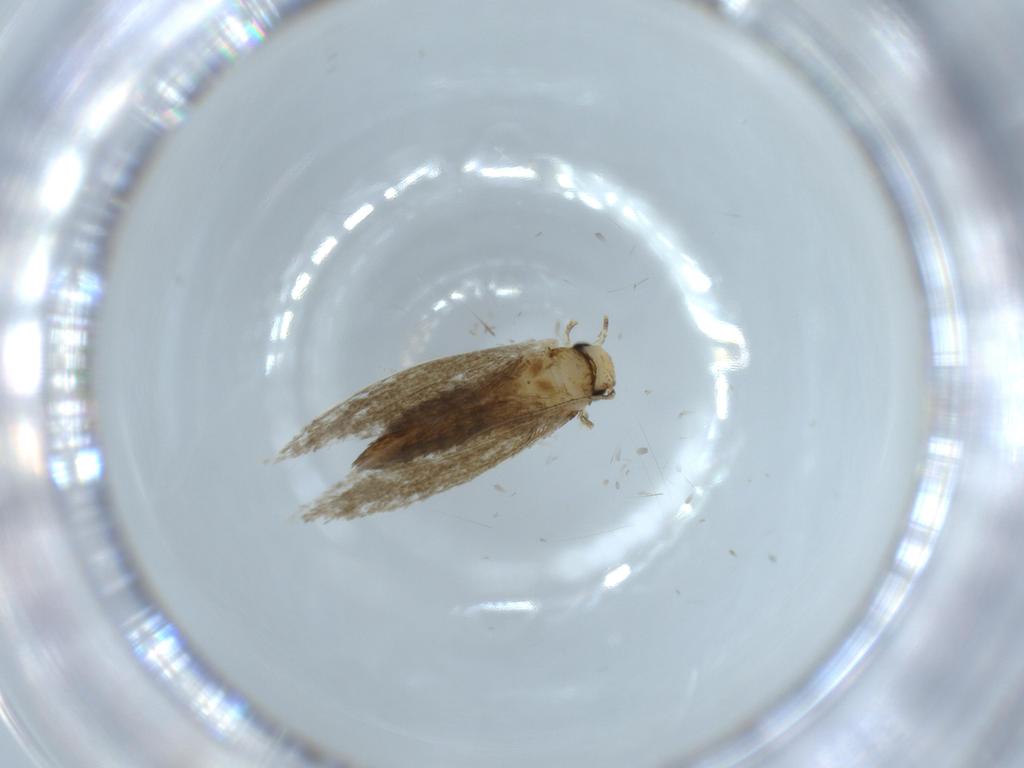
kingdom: Animalia
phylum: Arthropoda
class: Insecta
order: Lepidoptera
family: Tineidae
